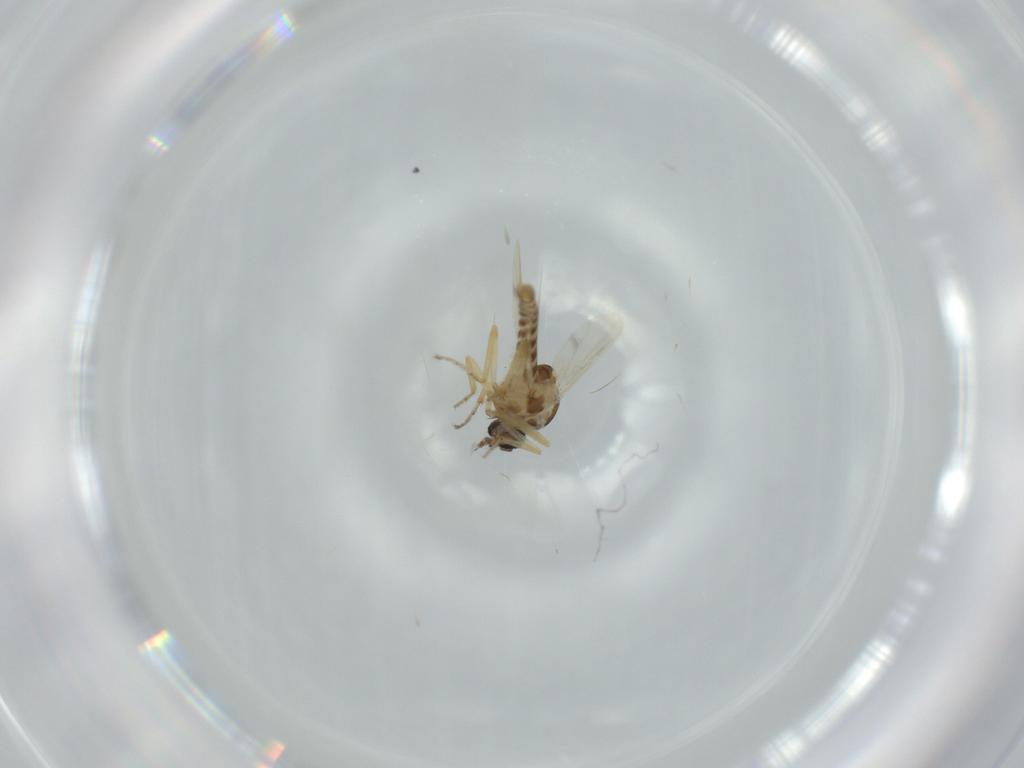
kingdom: Animalia
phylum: Arthropoda
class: Insecta
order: Diptera
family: Ceratopogonidae
